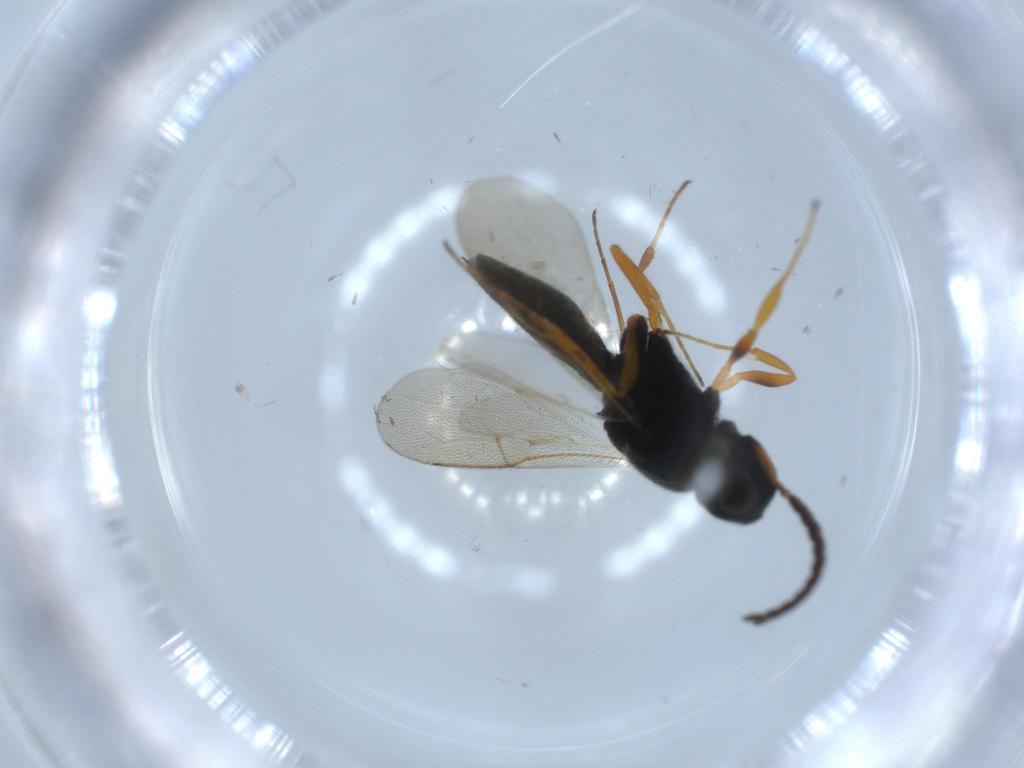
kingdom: Animalia
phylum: Arthropoda
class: Insecta
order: Hymenoptera
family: Scelionidae
